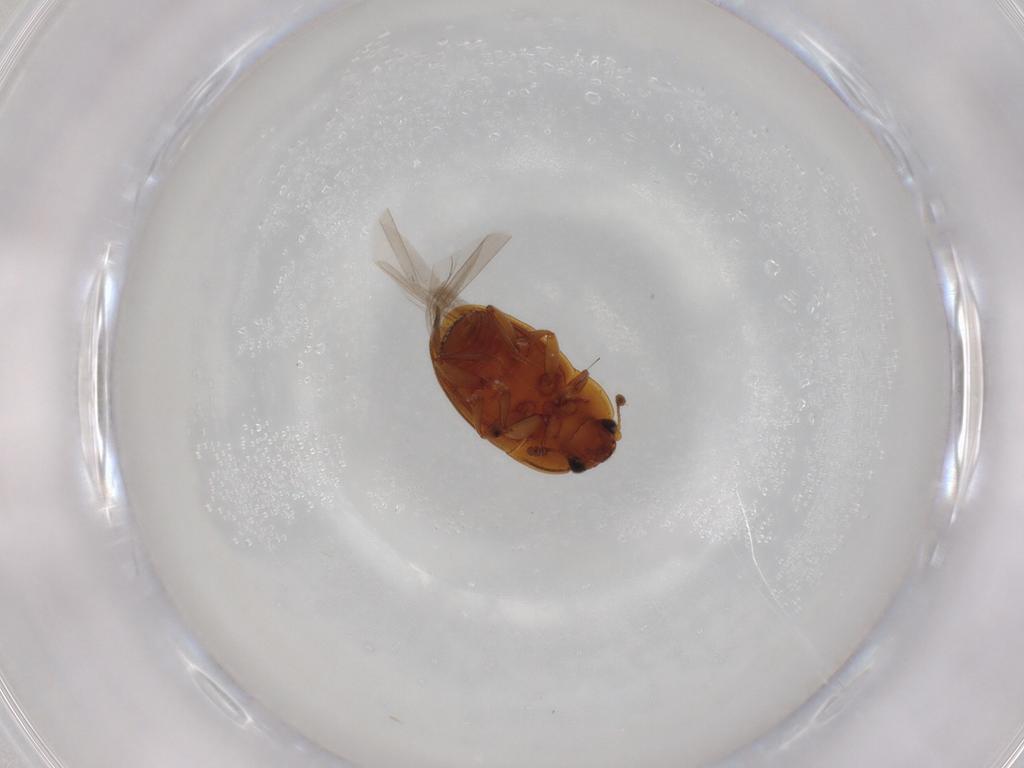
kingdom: Animalia
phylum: Arthropoda
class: Insecta
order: Coleoptera
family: Nitidulidae
